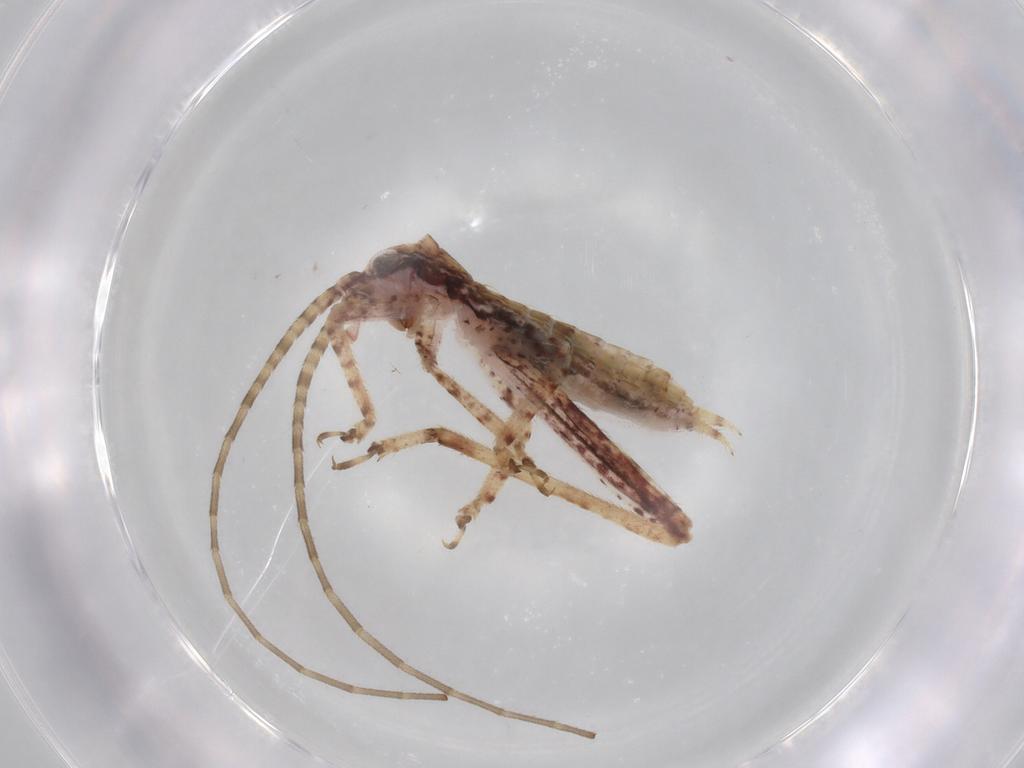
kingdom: Animalia
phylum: Arthropoda
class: Insecta
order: Orthoptera
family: Gryllidae
